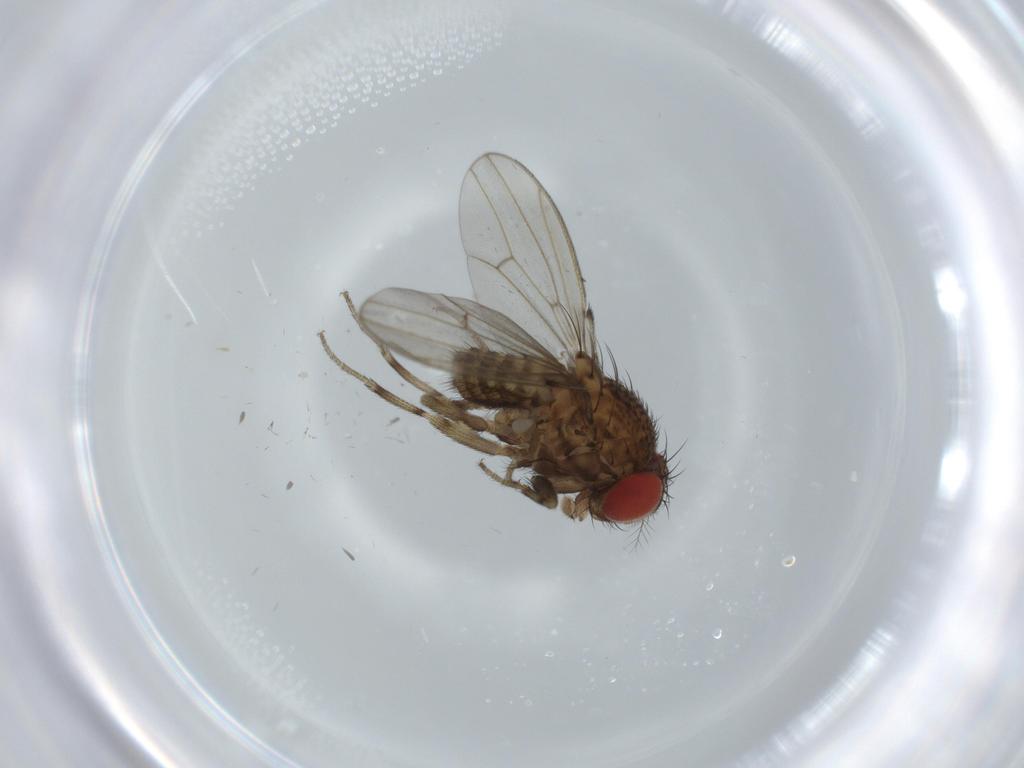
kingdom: Animalia
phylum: Arthropoda
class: Insecta
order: Diptera
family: Drosophilidae
